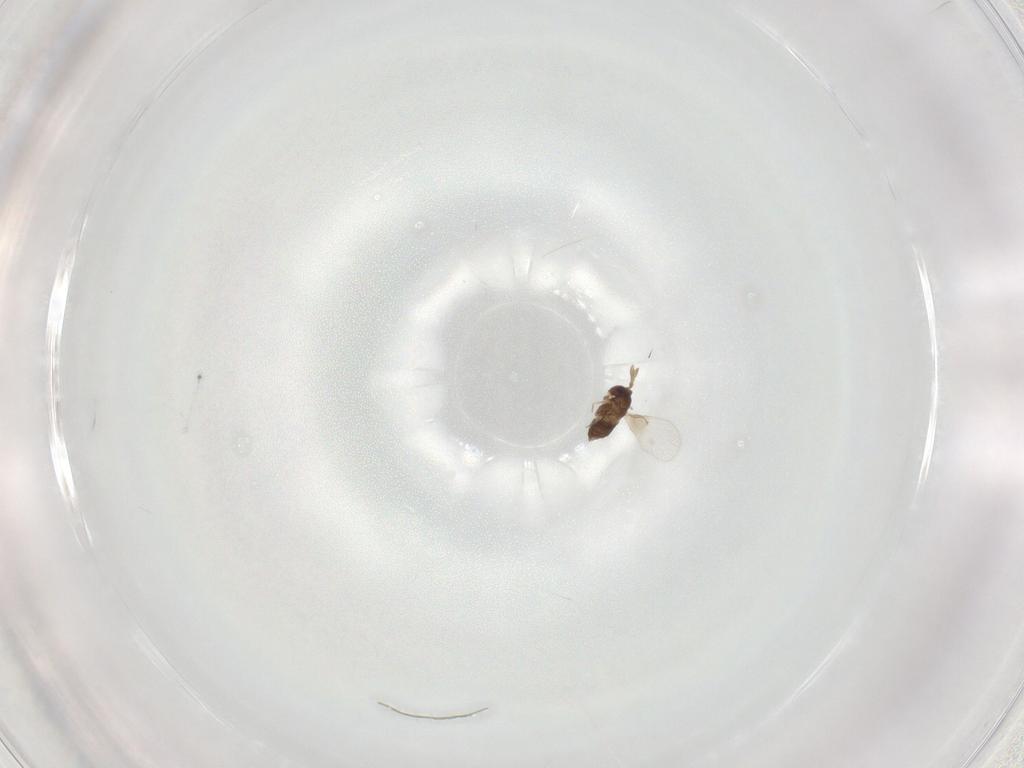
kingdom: Animalia
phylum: Arthropoda
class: Insecta
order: Hymenoptera
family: Trichogrammatidae
